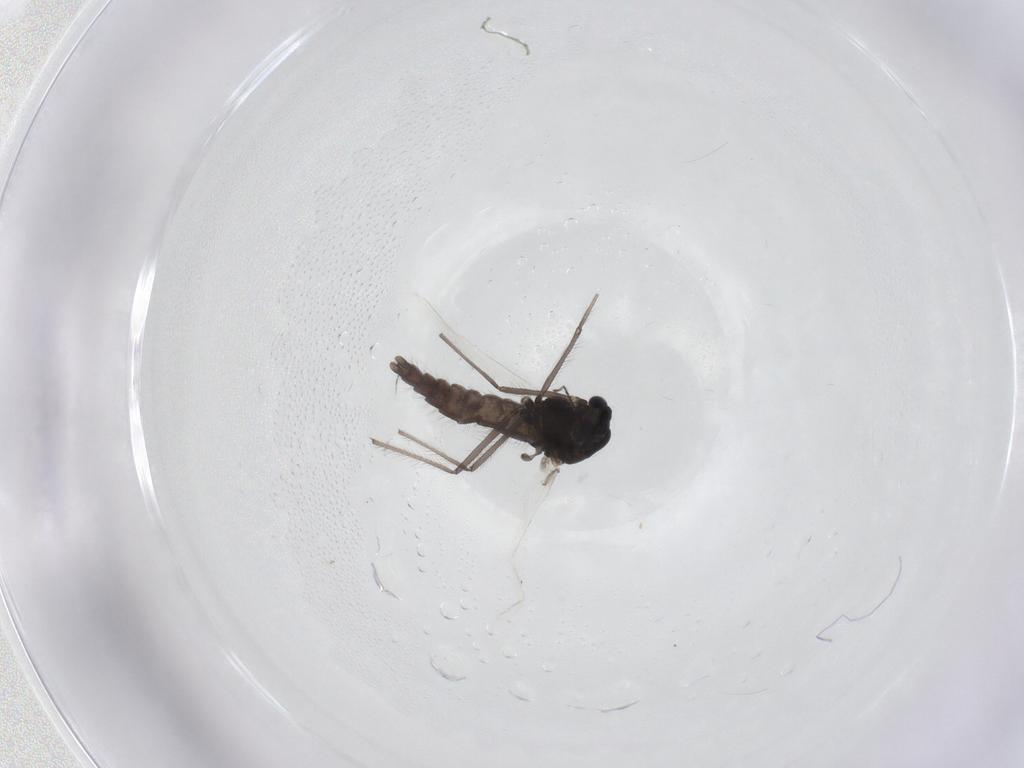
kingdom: Animalia
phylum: Arthropoda
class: Insecta
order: Diptera
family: Chironomidae
